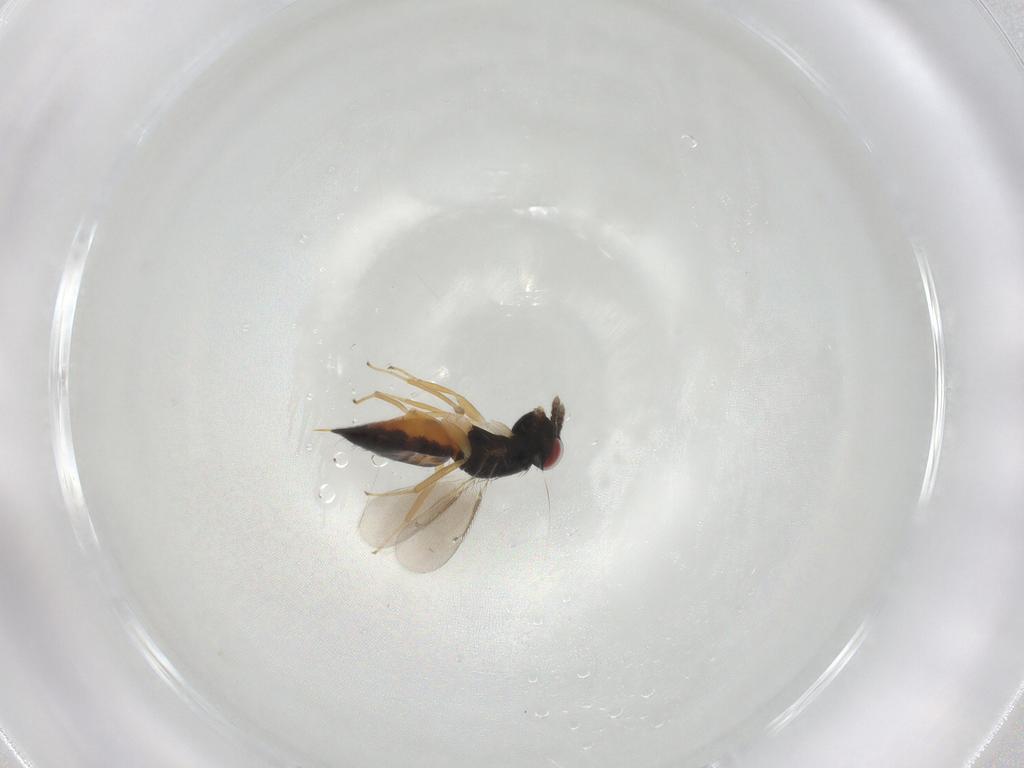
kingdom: Animalia
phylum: Arthropoda
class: Insecta
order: Hymenoptera
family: Eulophidae
